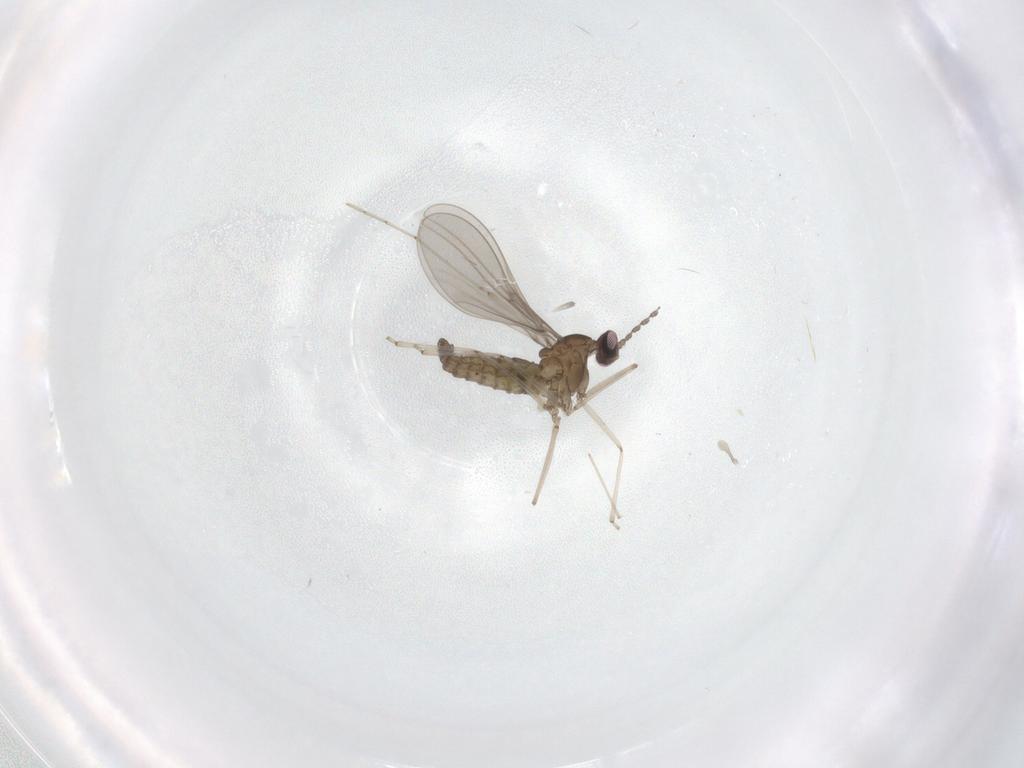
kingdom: Animalia
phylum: Arthropoda
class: Insecta
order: Diptera
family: Cecidomyiidae
